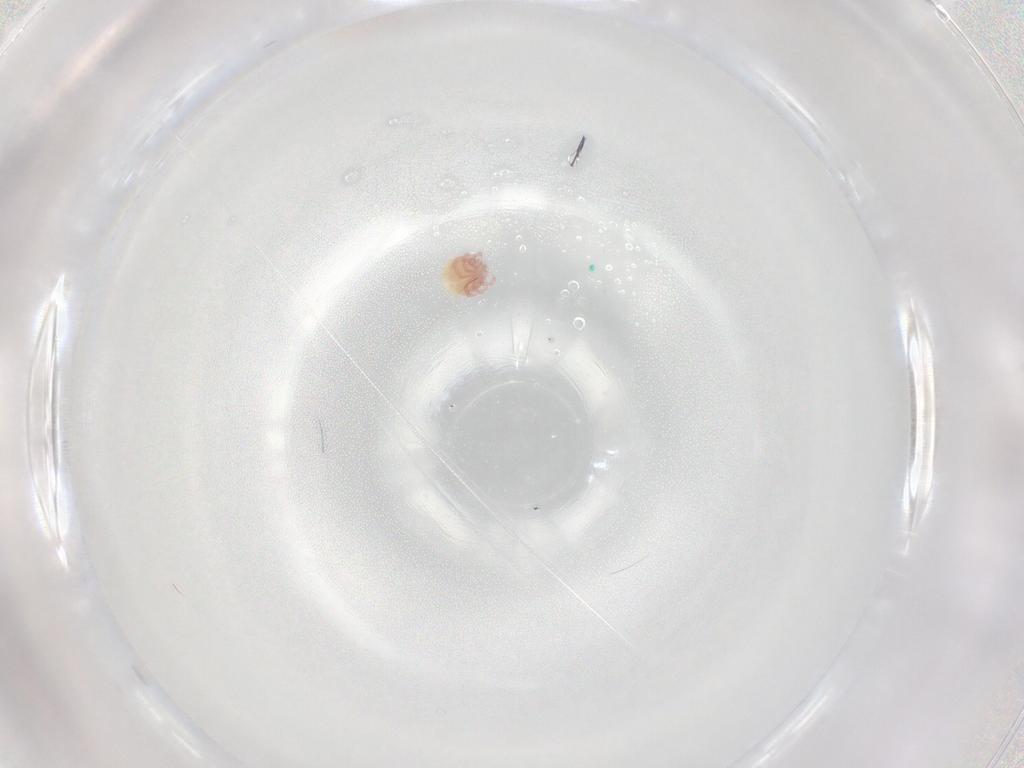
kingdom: Animalia
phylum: Arthropoda
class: Arachnida
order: Trombidiformes
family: Lebertiidae
